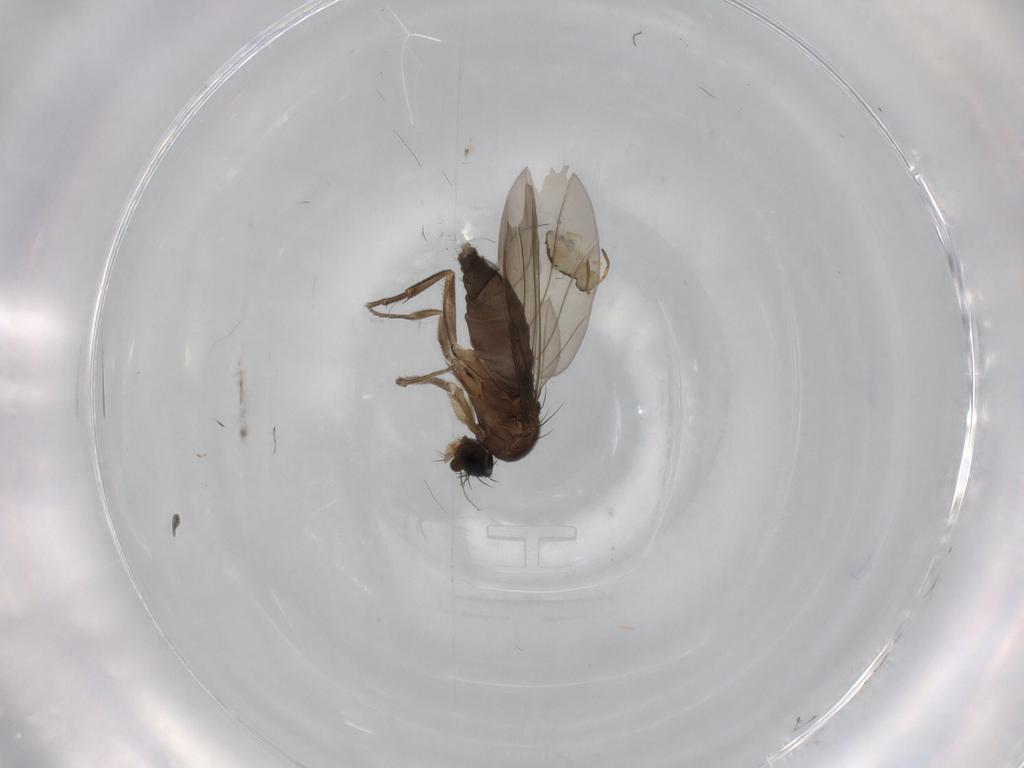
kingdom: Animalia
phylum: Arthropoda
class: Insecta
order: Diptera
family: Phoridae
